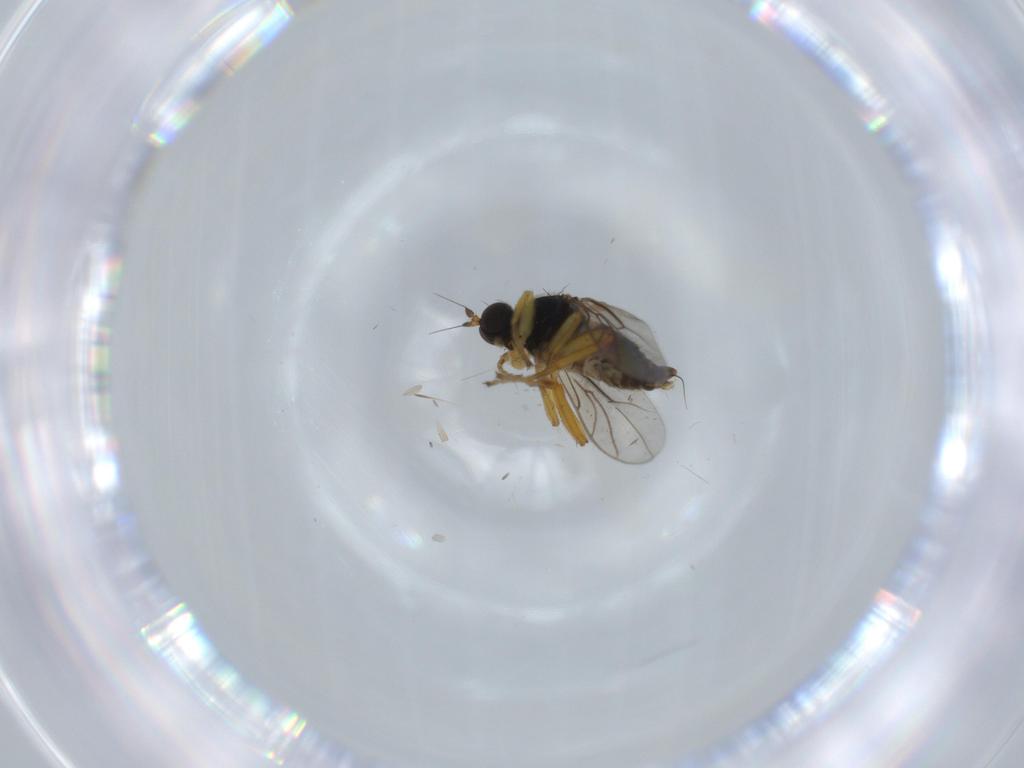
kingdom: Animalia
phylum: Arthropoda
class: Insecta
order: Diptera
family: Hybotidae
